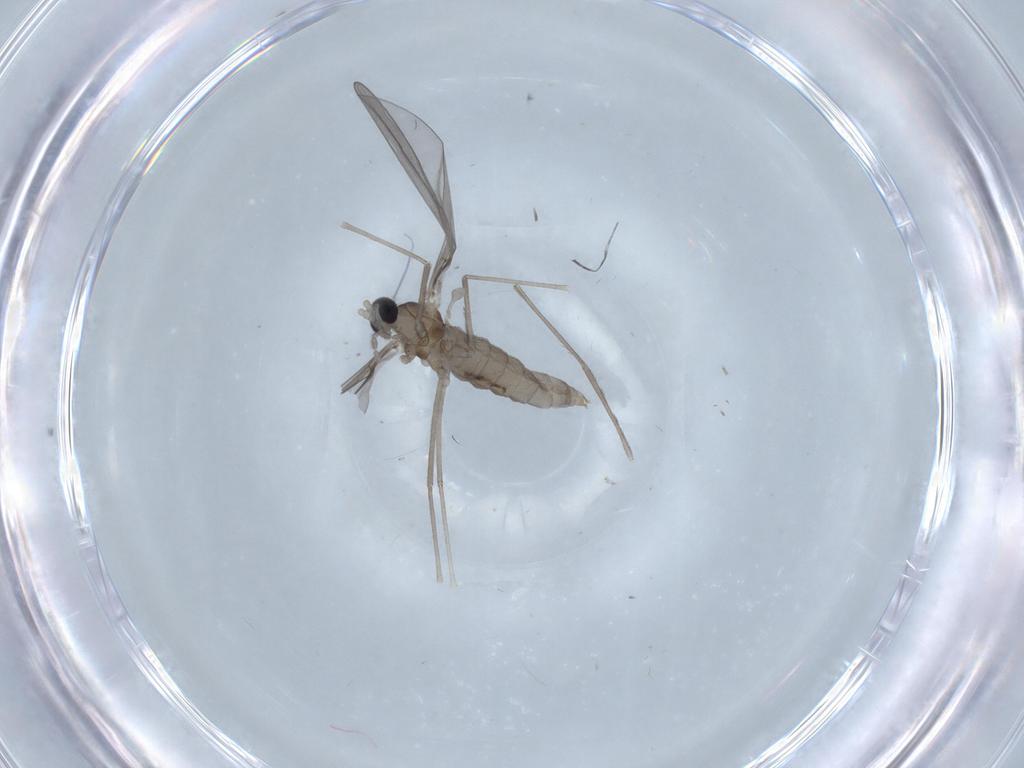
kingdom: Animalia
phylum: Arthropoda
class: Insecta
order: Diptera
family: Cecidomyiidae
